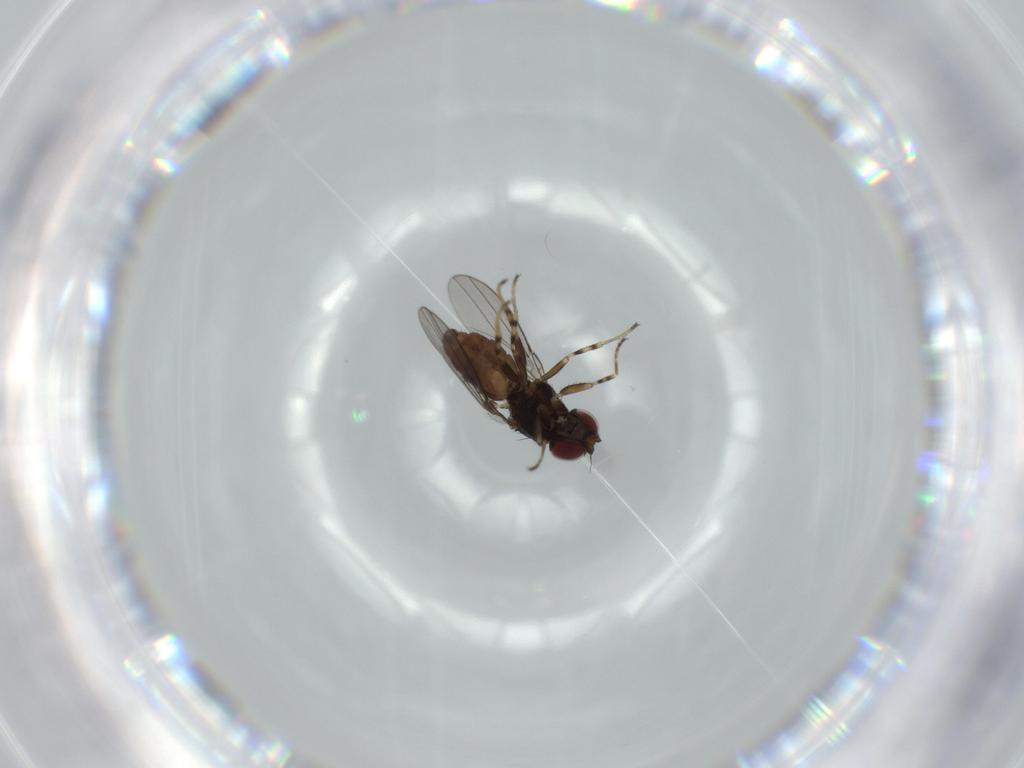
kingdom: Animalia
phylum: Arthropoda
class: Insecta
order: Diptera
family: Chloropidae
